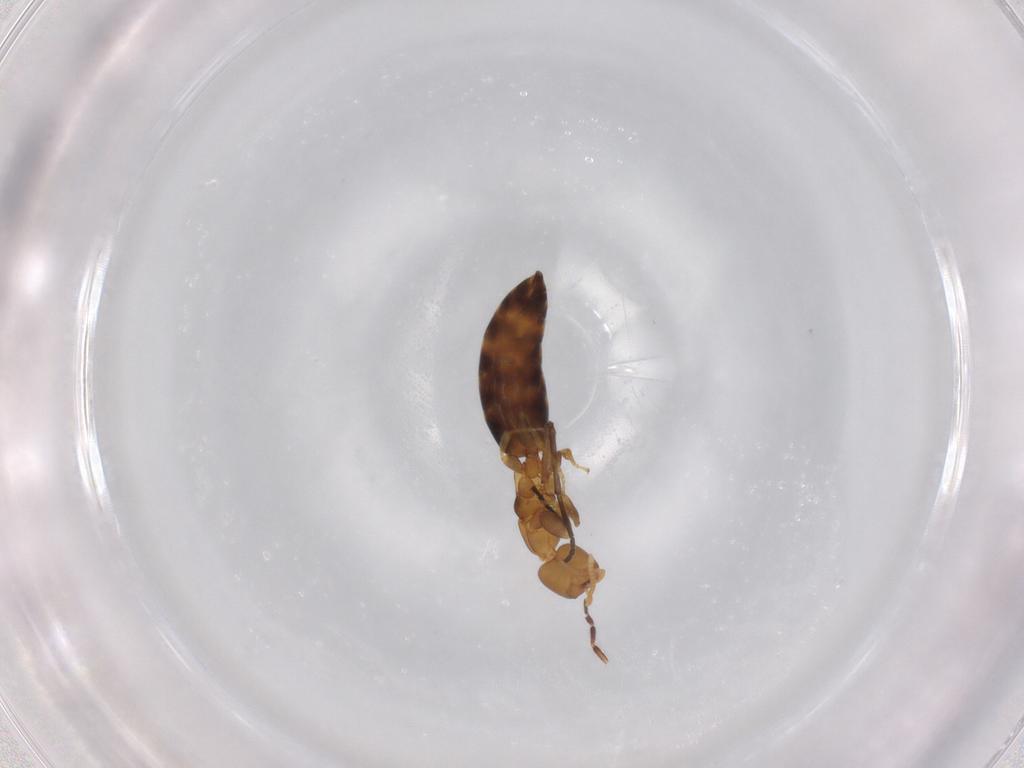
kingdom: Animalia
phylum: Arthropoda
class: Insecta
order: Hymenoptera
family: Bethylidae
